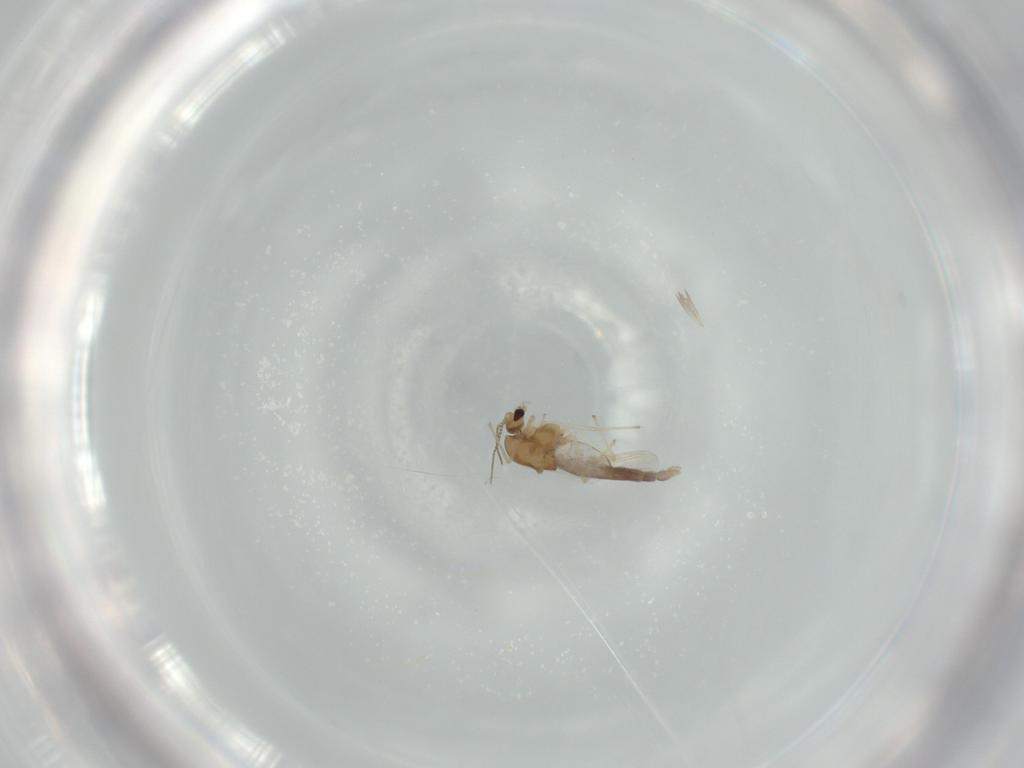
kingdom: Animalia
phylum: Arthropoda
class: Insecta
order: Diptera
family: Chironomidae
